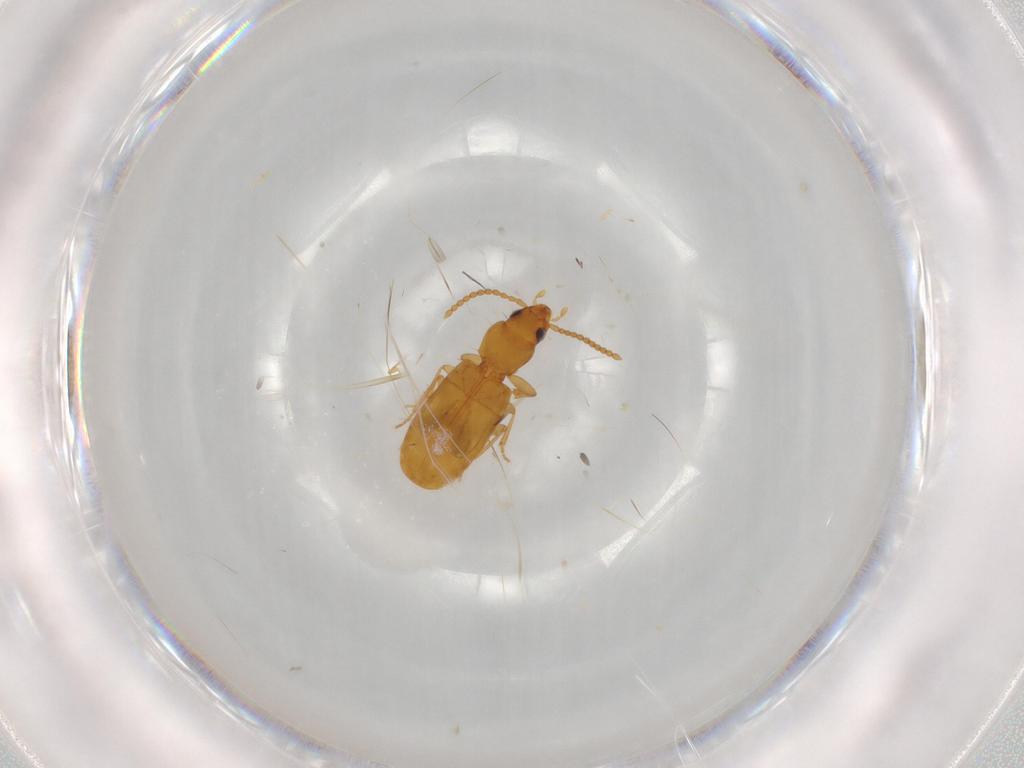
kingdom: Animalia
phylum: Arthropoda
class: Insecta
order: Coleoptera
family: Carabidae
